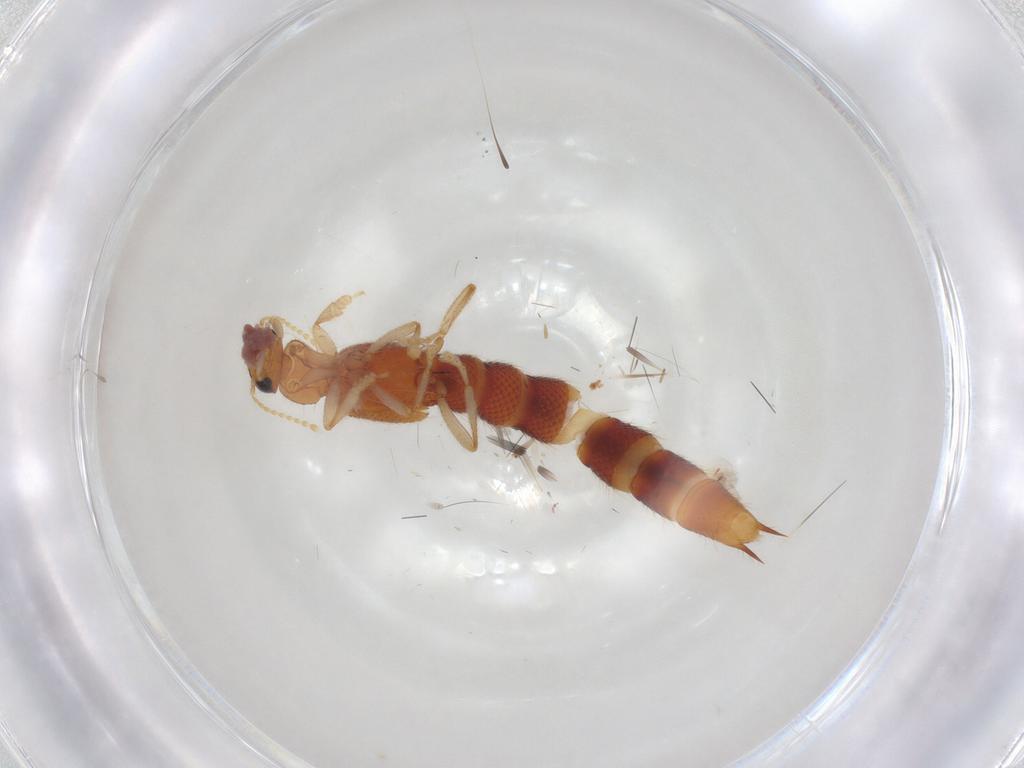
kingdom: Animalia
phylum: Arthropoda
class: Insecta
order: Coleoptera
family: Staphylinidae
